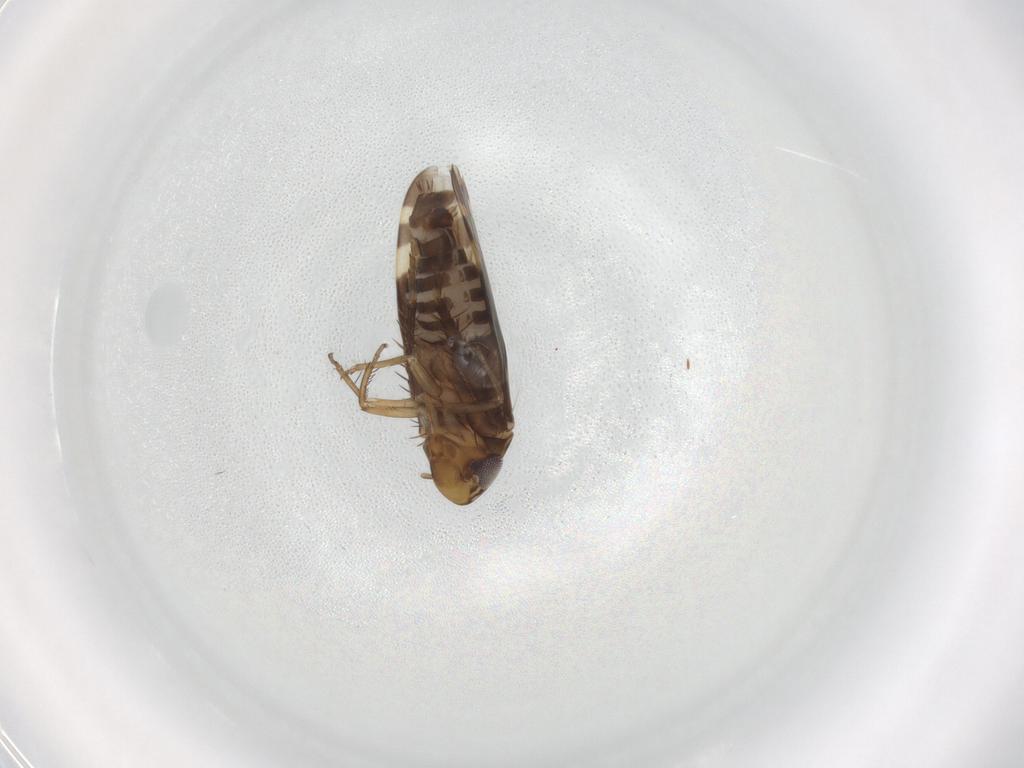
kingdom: Animalia
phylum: Arthropoda
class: Insecta
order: Hemiptera
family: Cicadellidae
